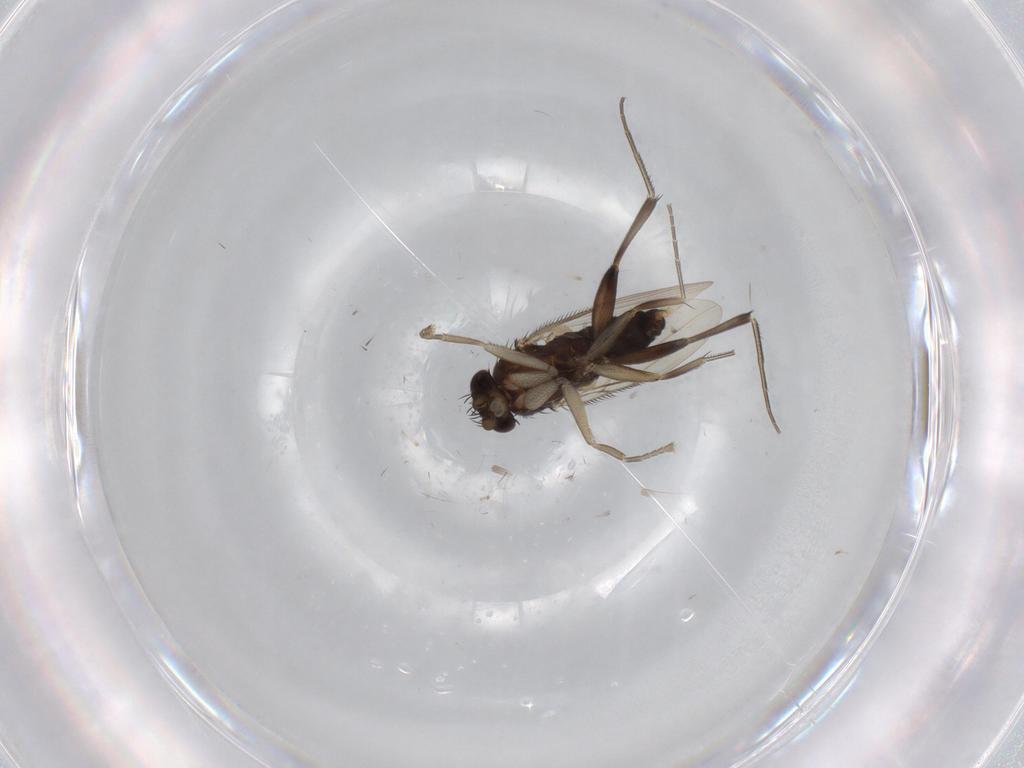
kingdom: Animalia
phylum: Arthropoda
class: Insecta
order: Diptera
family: Phoridae
